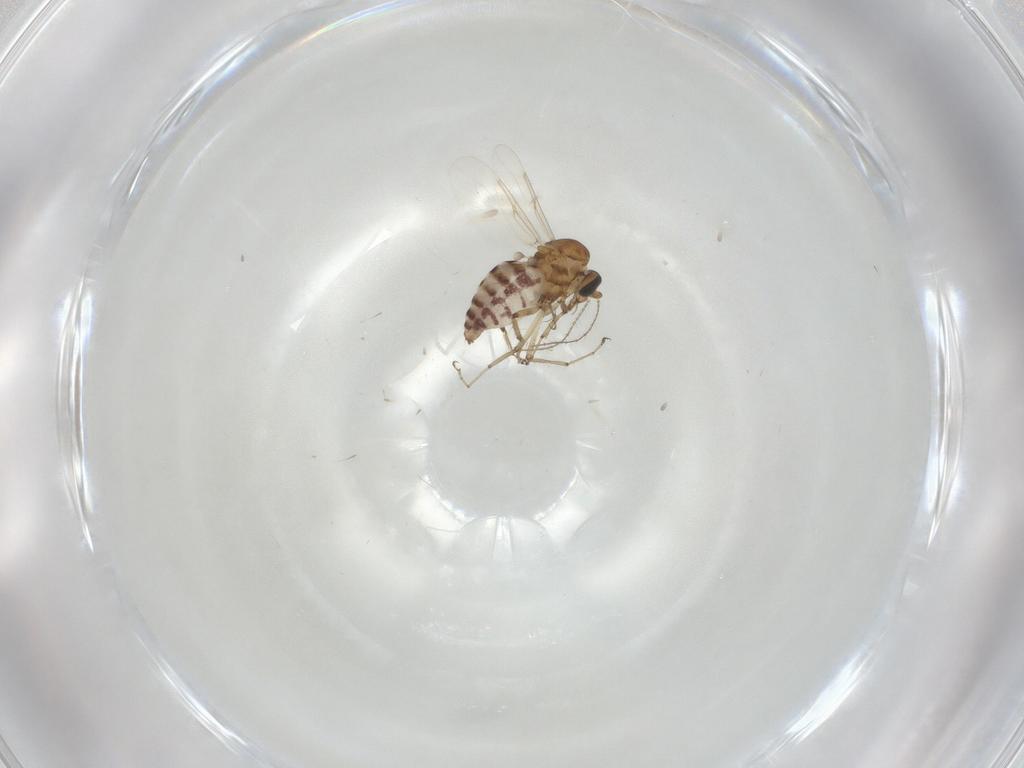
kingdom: Animalia
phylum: Arthropoda
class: Insecta
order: Diptera
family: Ceratopogonidae
